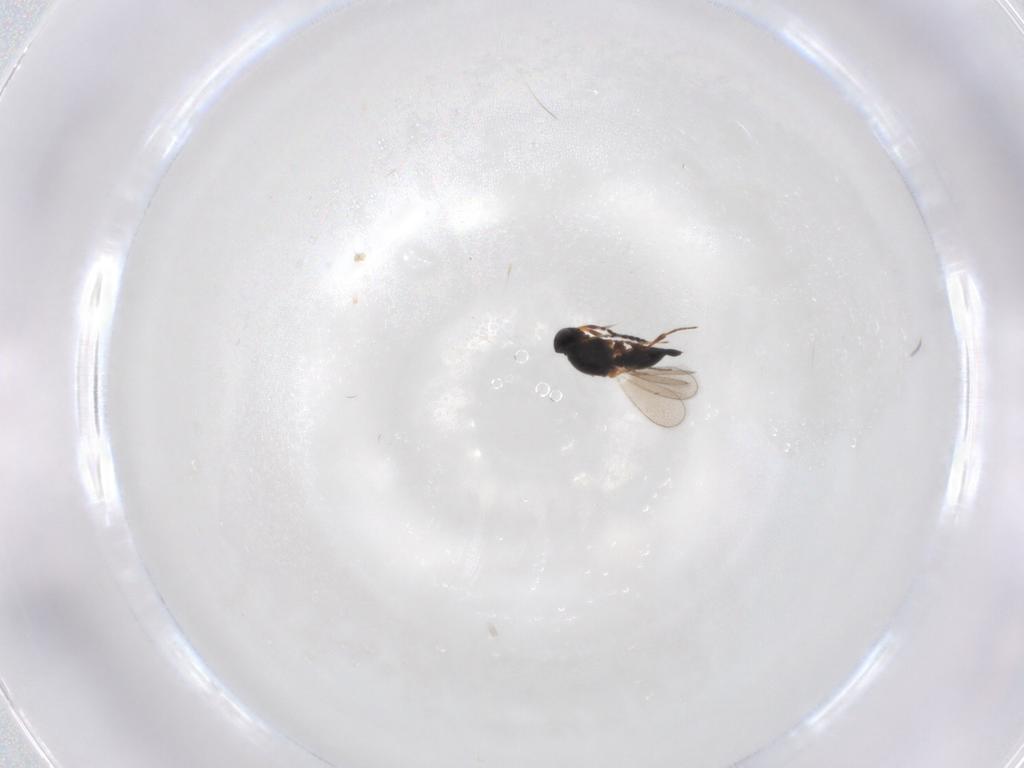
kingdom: Animalia
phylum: Arthropoda
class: Insecta
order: Hymenoptera
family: Platygastridae
